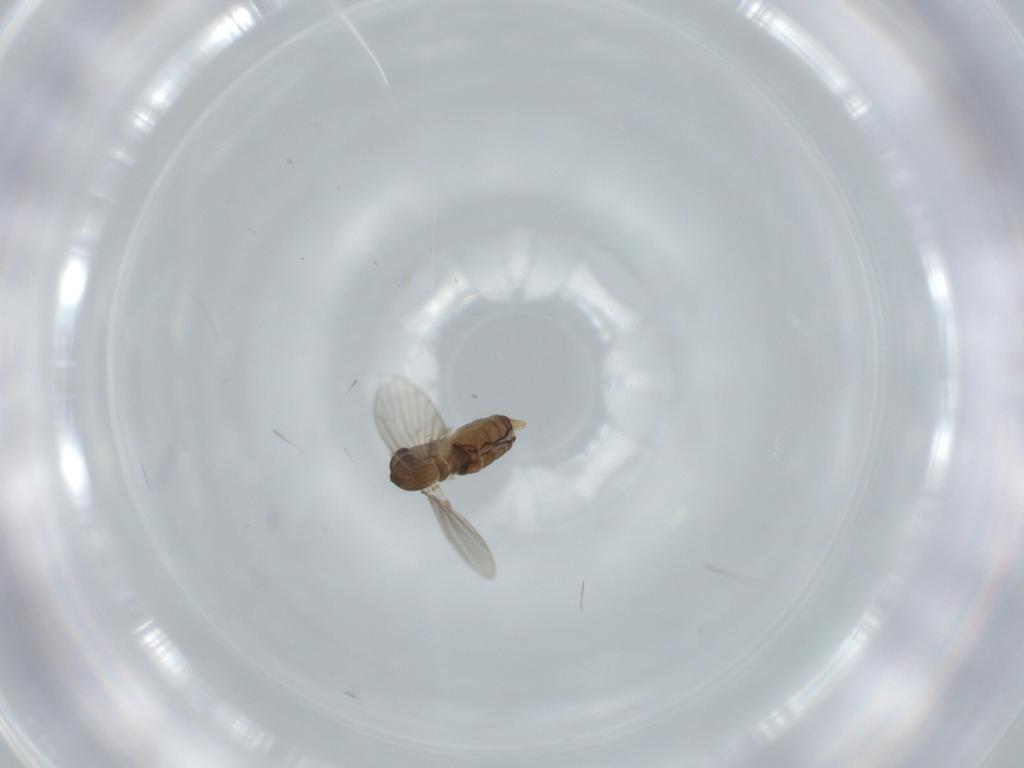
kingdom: Animalia
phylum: Arthropoda
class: Insecta
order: Diptera
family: Psychodidae
